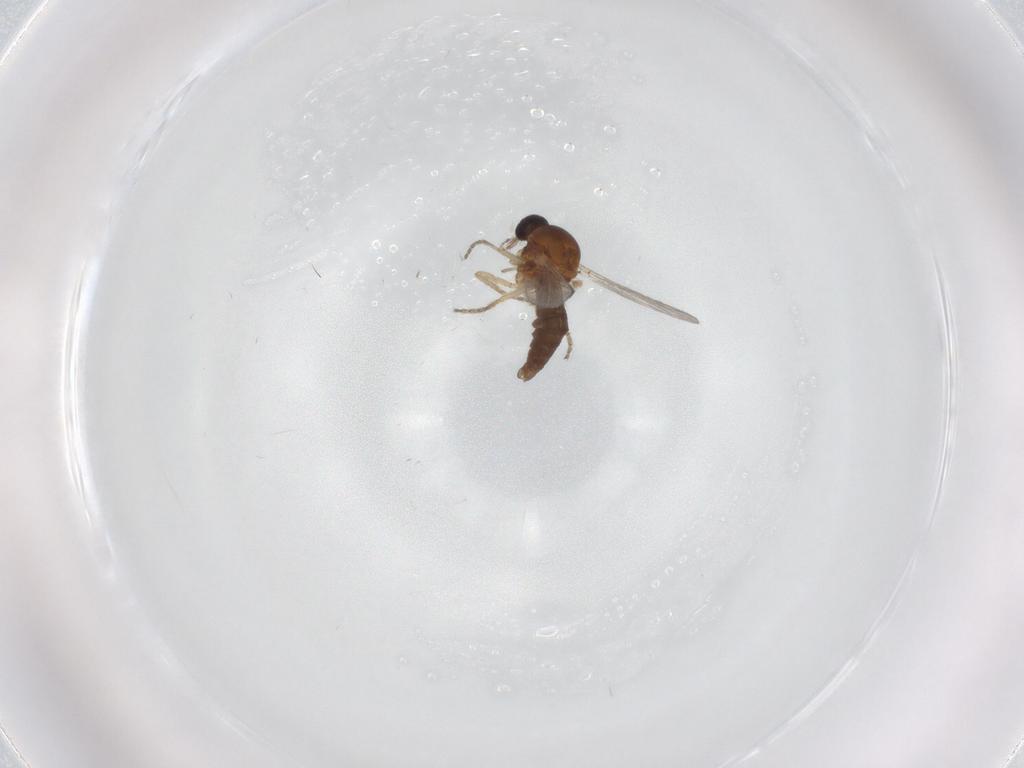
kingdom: Animalia
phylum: Arthropoda
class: Insecta
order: Diptera
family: Ceratopogonidae
